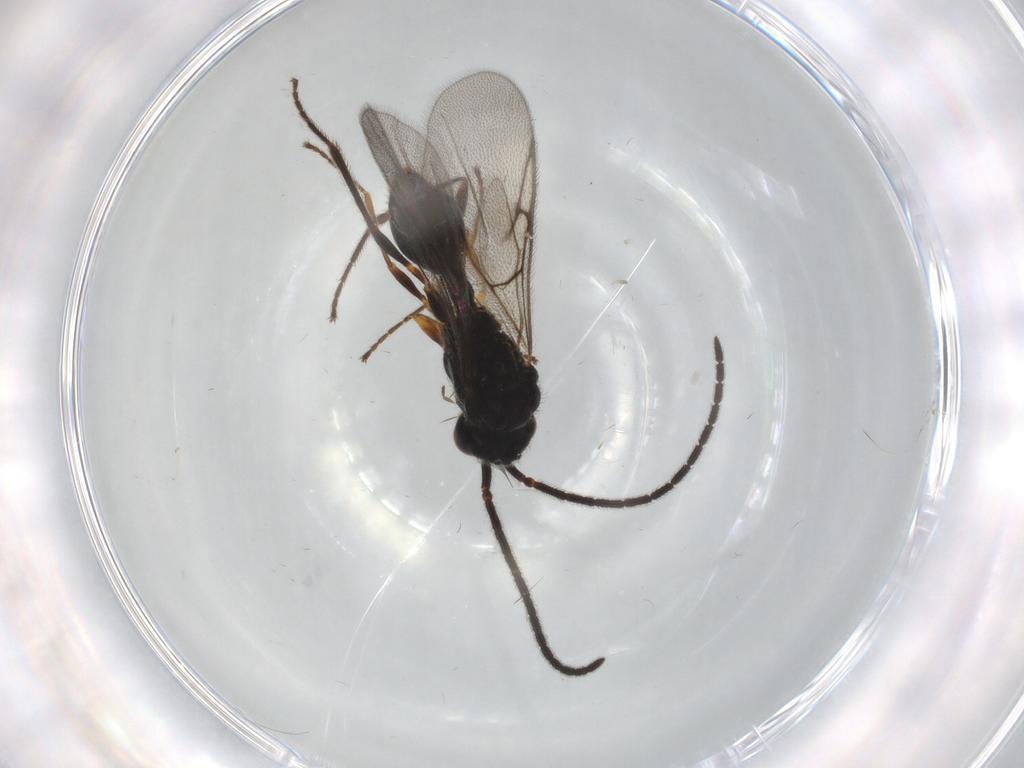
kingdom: Animalia
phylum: Arthropoda
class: Insecta
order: Hymenoptera
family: Diapriidae
